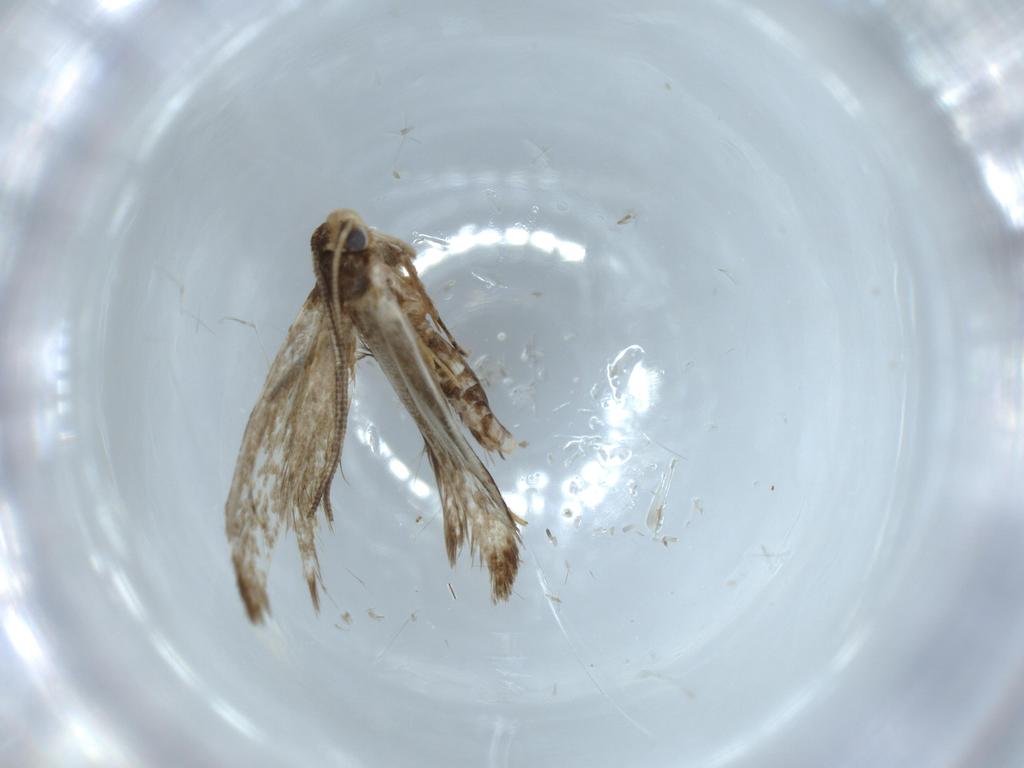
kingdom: Animalia
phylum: Arthropoda
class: Insecta
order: Lepidoptera
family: Tineidae
